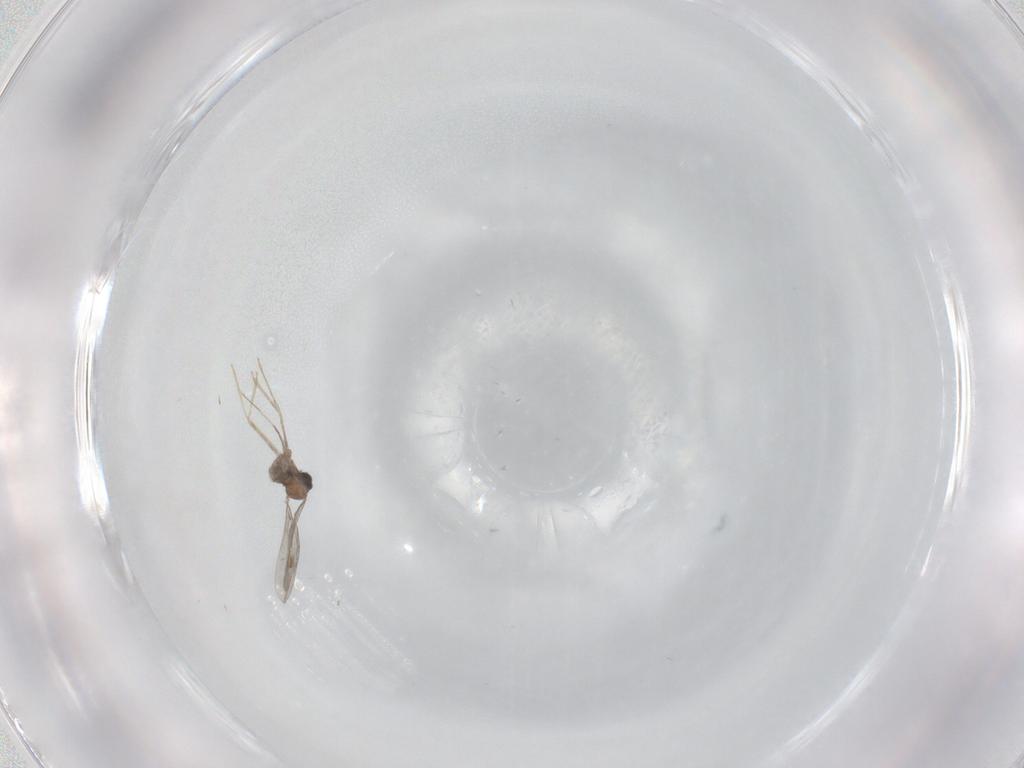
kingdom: Animalia
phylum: Arthropoda
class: Insecta
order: Diptera
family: Cecidomyiidae
